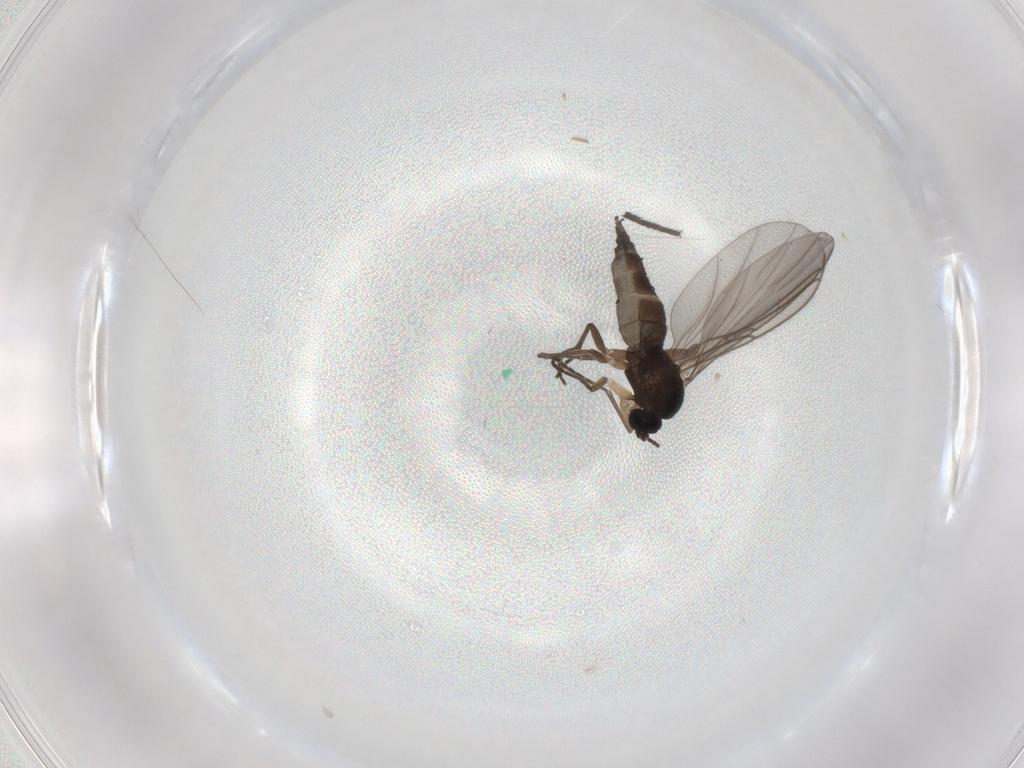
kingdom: Animalia
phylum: Arthropoda
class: Insecta
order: Diptera
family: Sciaridae
